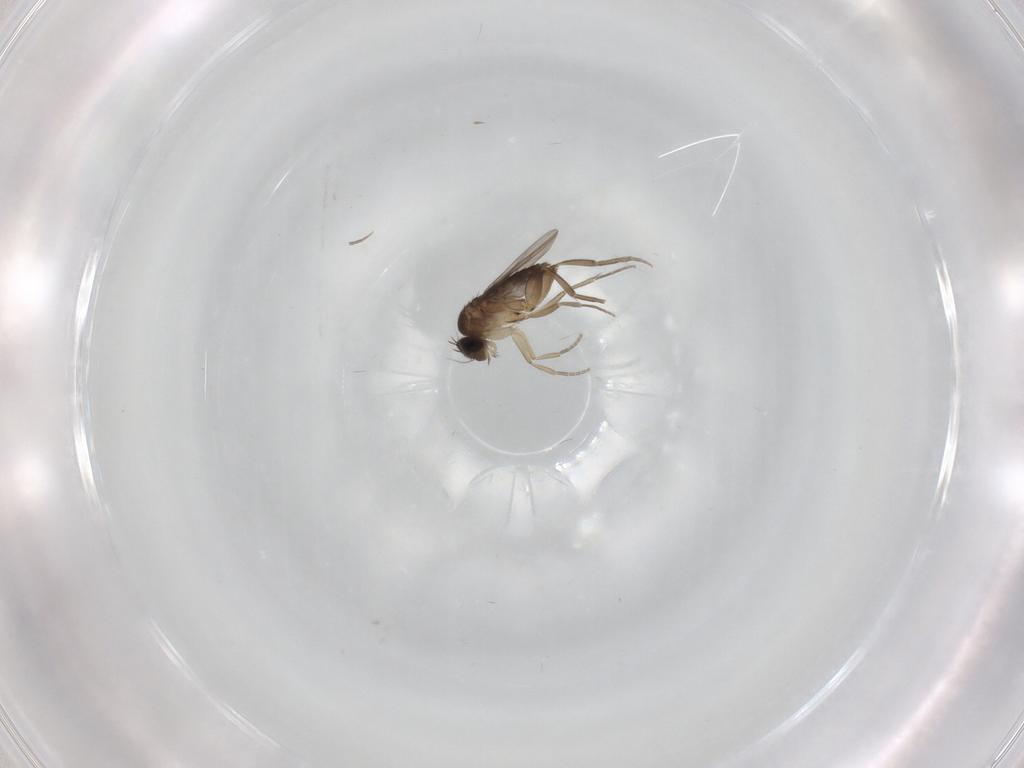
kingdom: Animalia
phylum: Arthropoda
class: Insecta
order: Diptera
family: Phoridae
